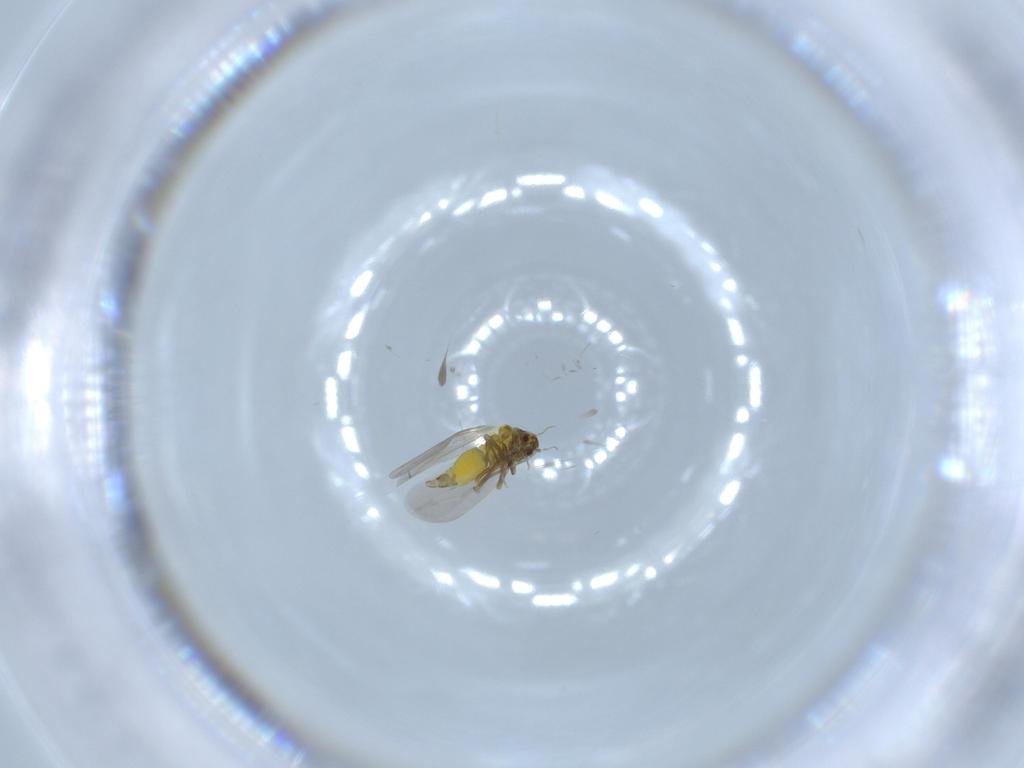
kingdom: Animalia
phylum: Arthropoda
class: Insecta
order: Hemiptera
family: Aleyrodidae
